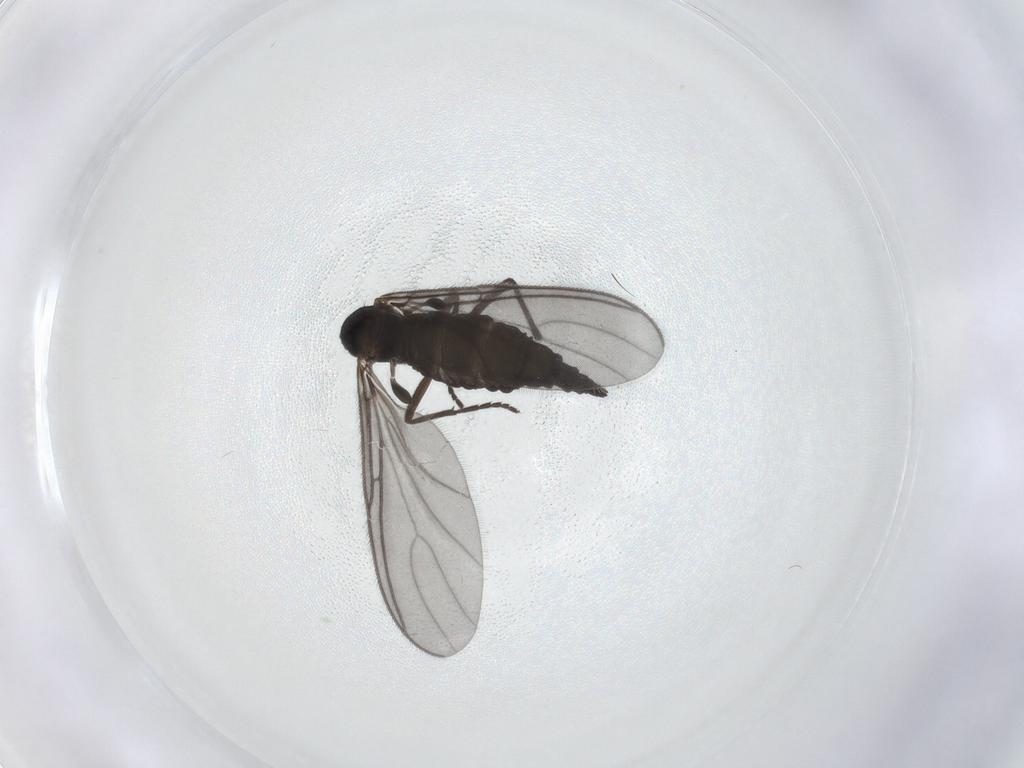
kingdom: Animalia
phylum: Arthropoda
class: Insecta
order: Diptera
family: Sciaridae
